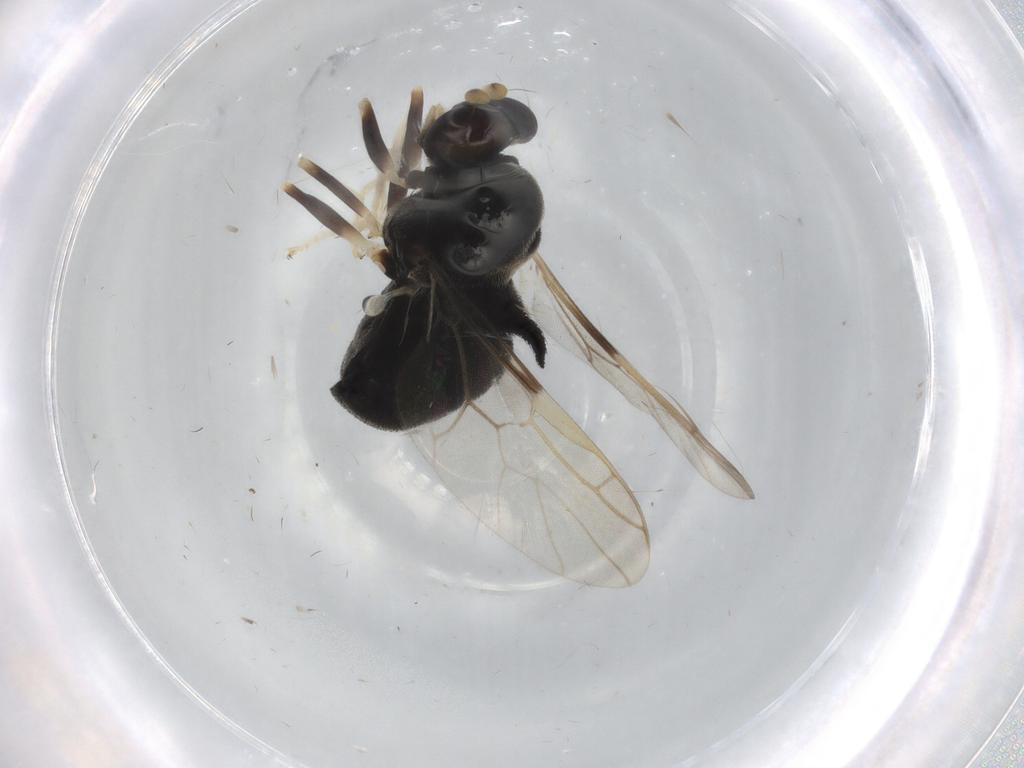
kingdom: Animalia
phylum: Arthropoda
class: Insecta
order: Diptera
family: Stratiomyidae
